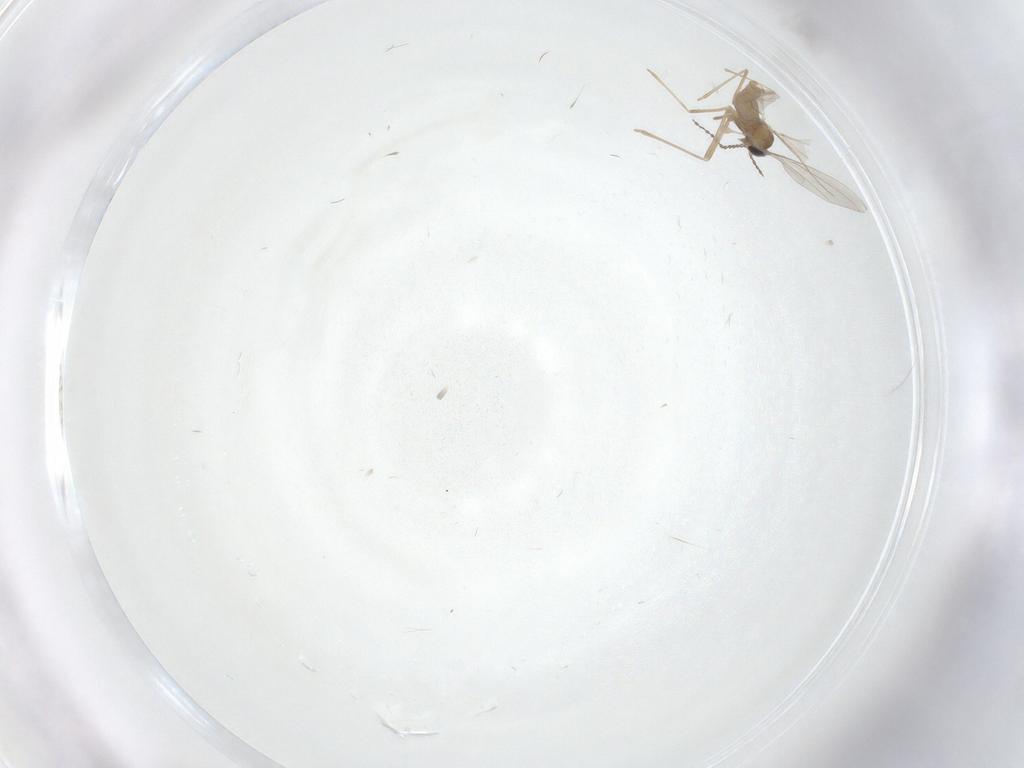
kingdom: Animalia
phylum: Arthropoda
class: Insecta
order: Diptera
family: Cecidomyiidae
